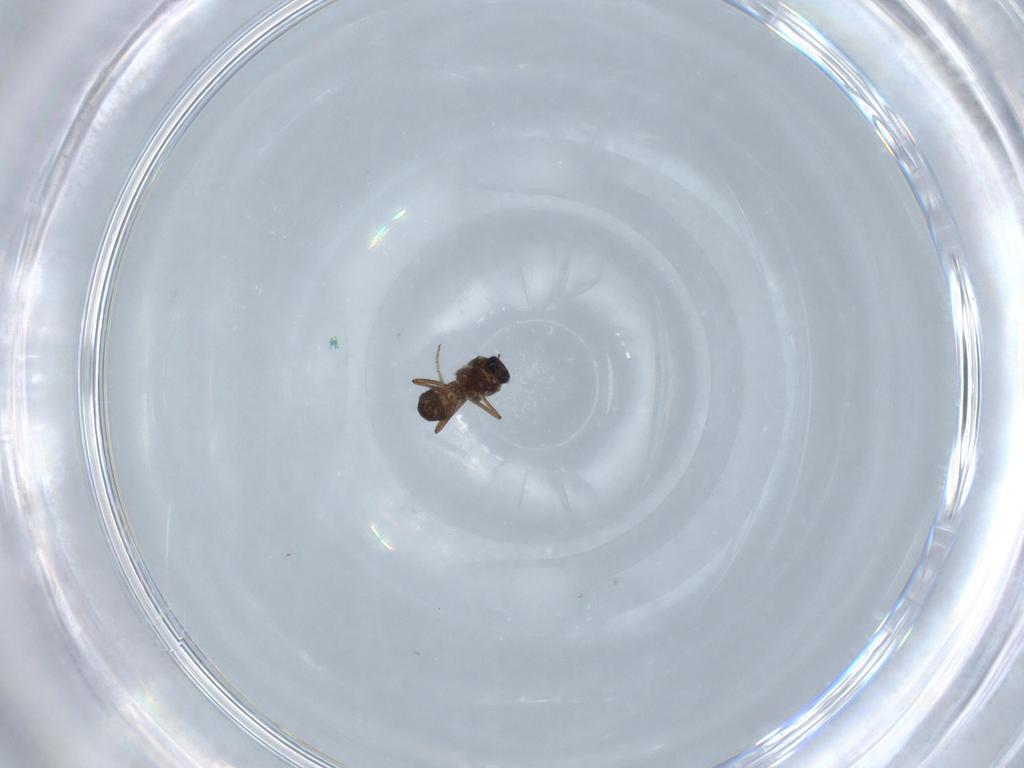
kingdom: Animalia
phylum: Arthropoda
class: Insecta
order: Diptera
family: Ceratopogonidae
